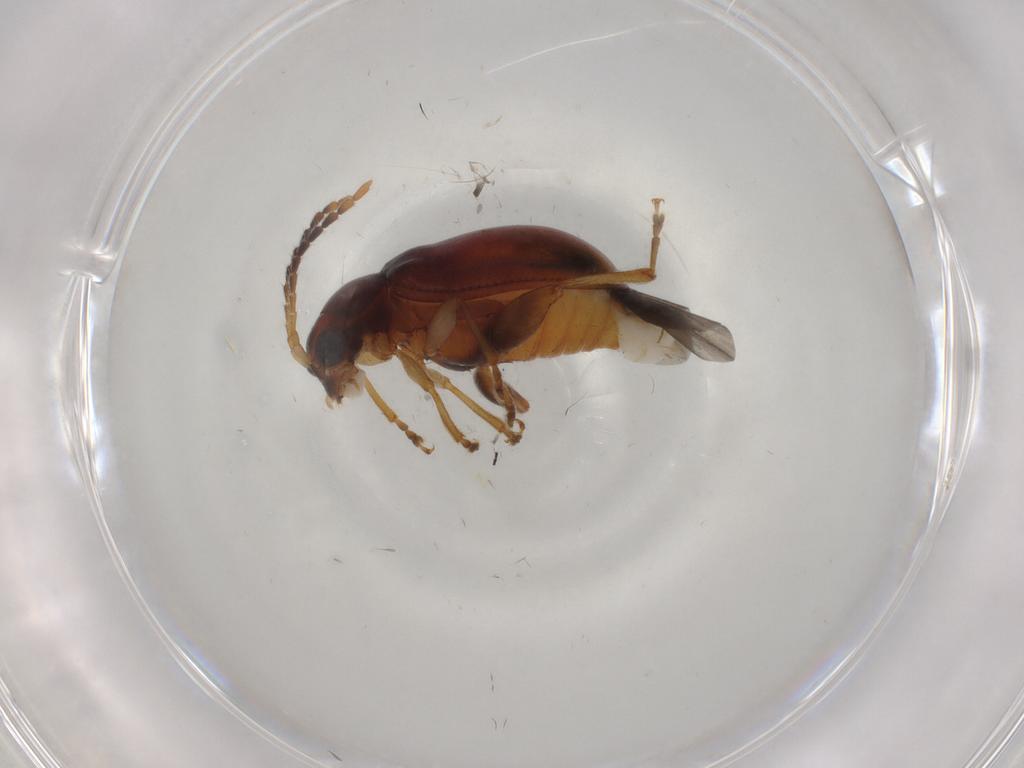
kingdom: Animalia
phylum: Arthropoda
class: Insecta
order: Coleoptera
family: Chrysomelidae
